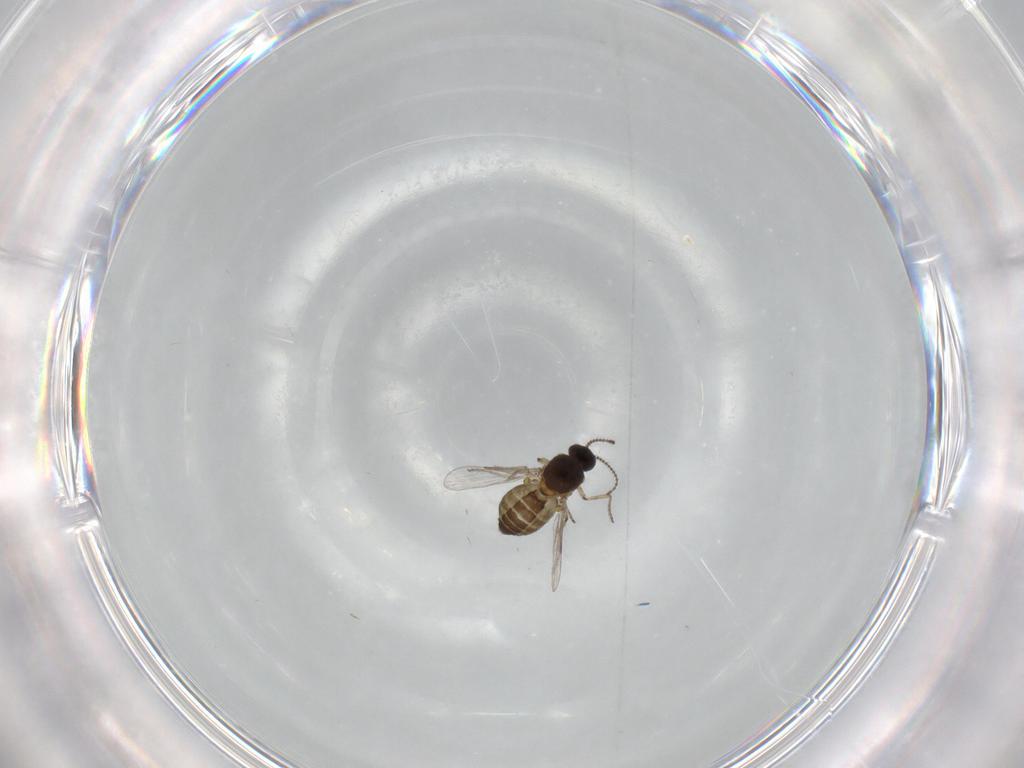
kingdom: Animalia
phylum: Arthropoda
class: Insecta
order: Diptera
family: Ceratopogonidae
